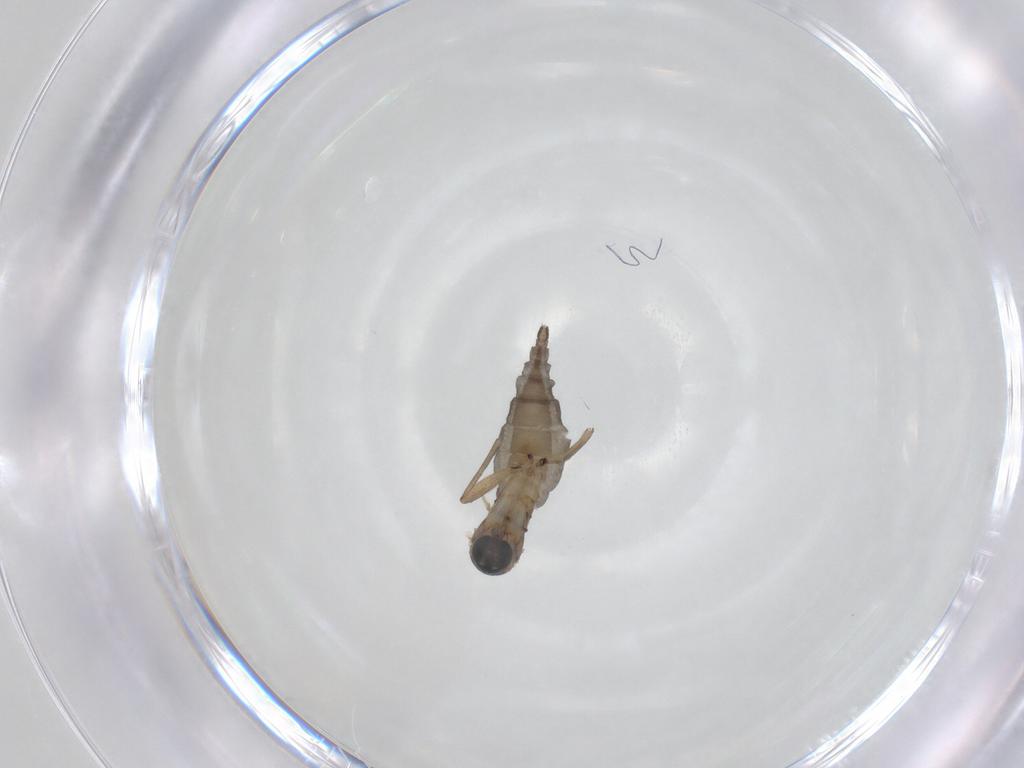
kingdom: Animalia
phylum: Arthropoda
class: Insecta
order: Diptera
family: Sciaridae
